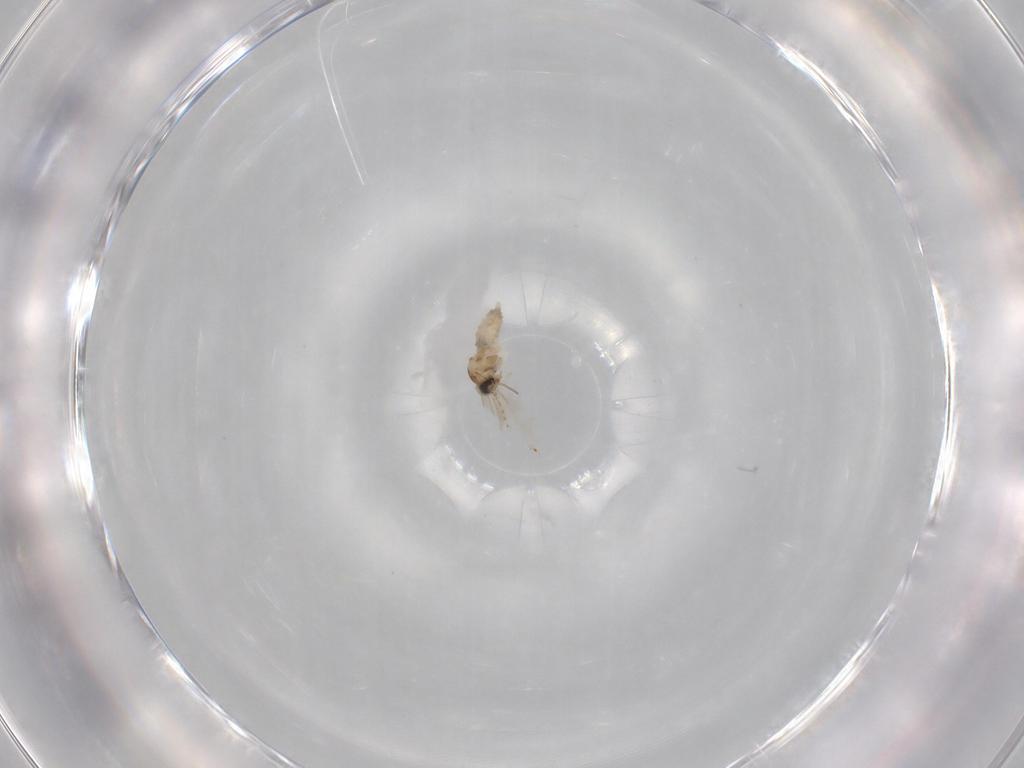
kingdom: Animalia
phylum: Arthropoda
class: Insecta
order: Diptera
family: Cecidomyiidae
